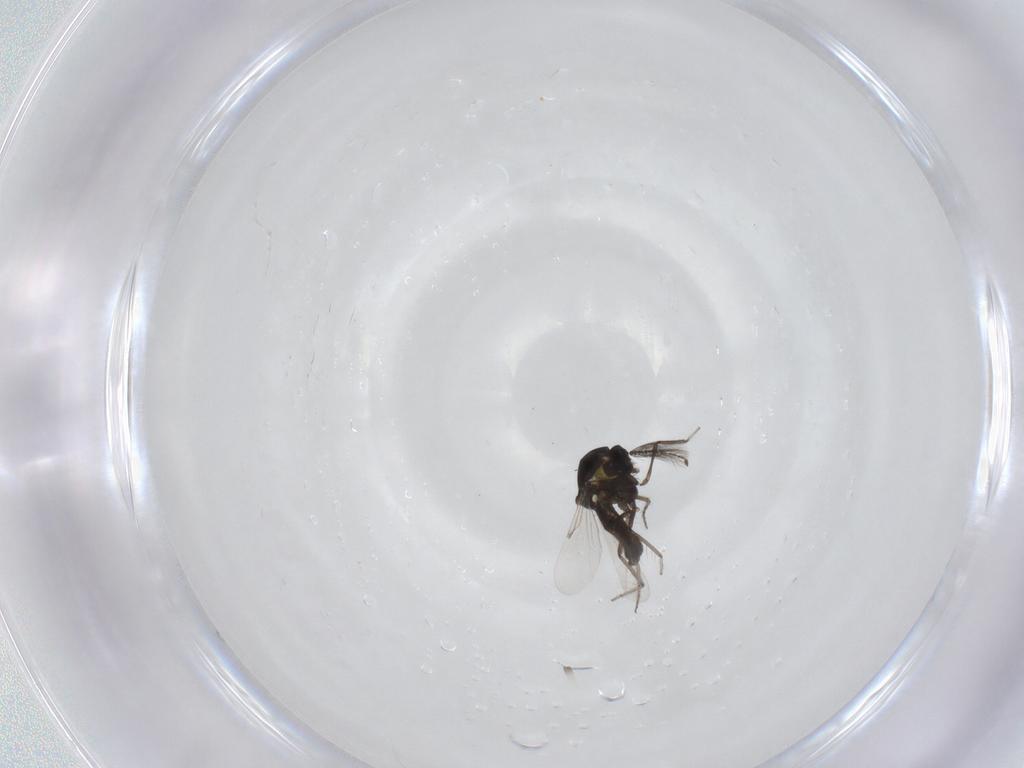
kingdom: Animalia
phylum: Arthropoda
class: Insecta
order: Diptera
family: Ceratopogonidae
